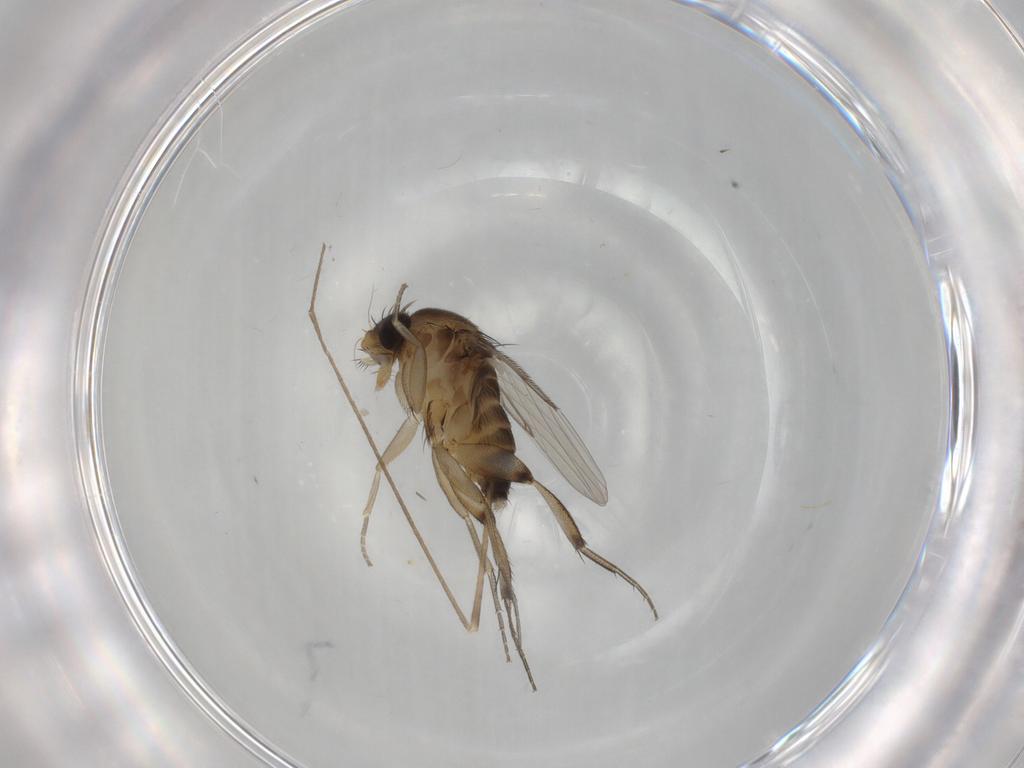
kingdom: Animalia
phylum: Arthropoda
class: Insecta
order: Diptera
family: Phoridae
